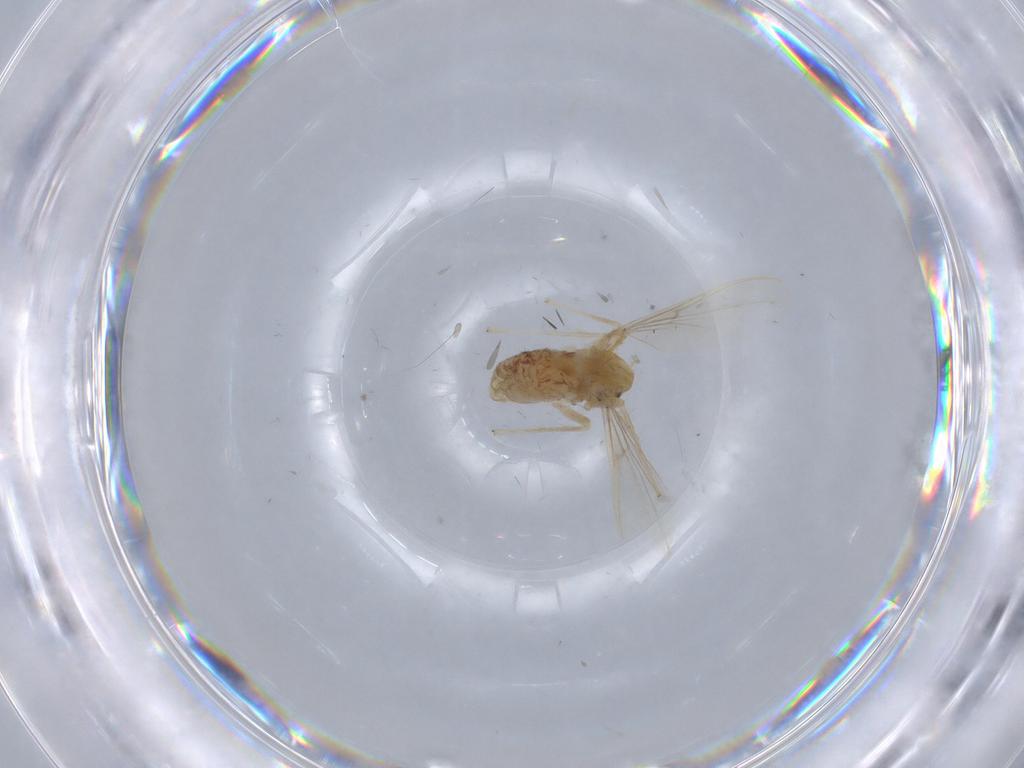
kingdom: Animalia
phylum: Arthropoda
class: Insecta
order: Diptera
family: Chironomidae
